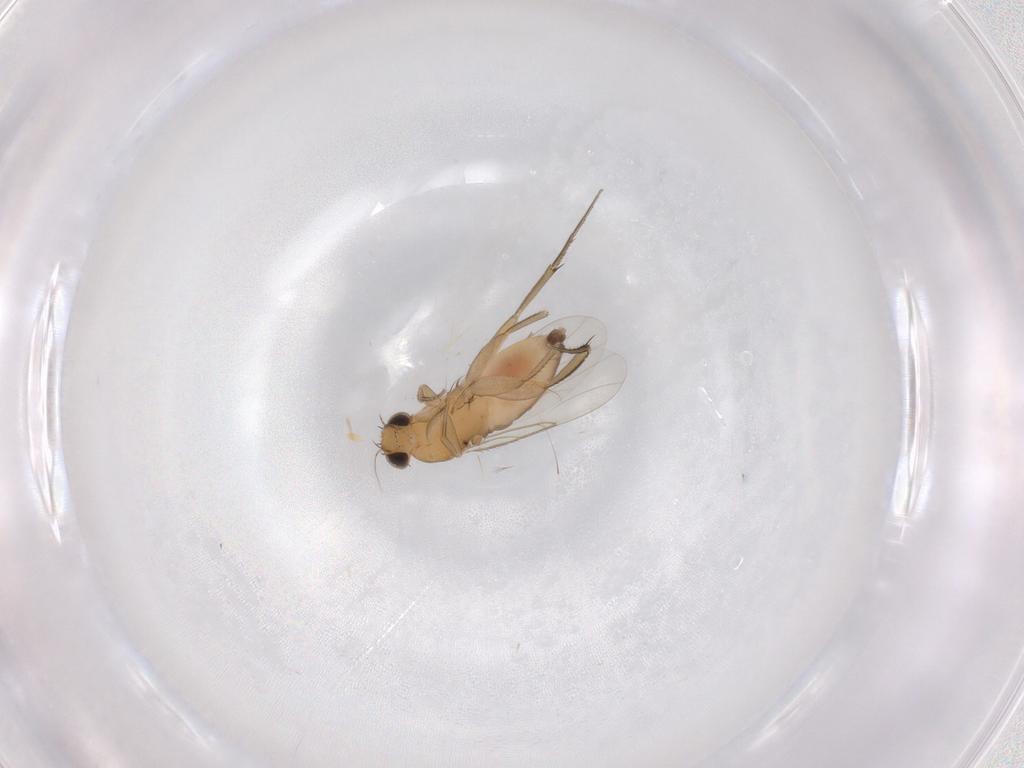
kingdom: Animalia
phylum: Arthropoda
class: Insecta
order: Diptera
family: Phoridae
